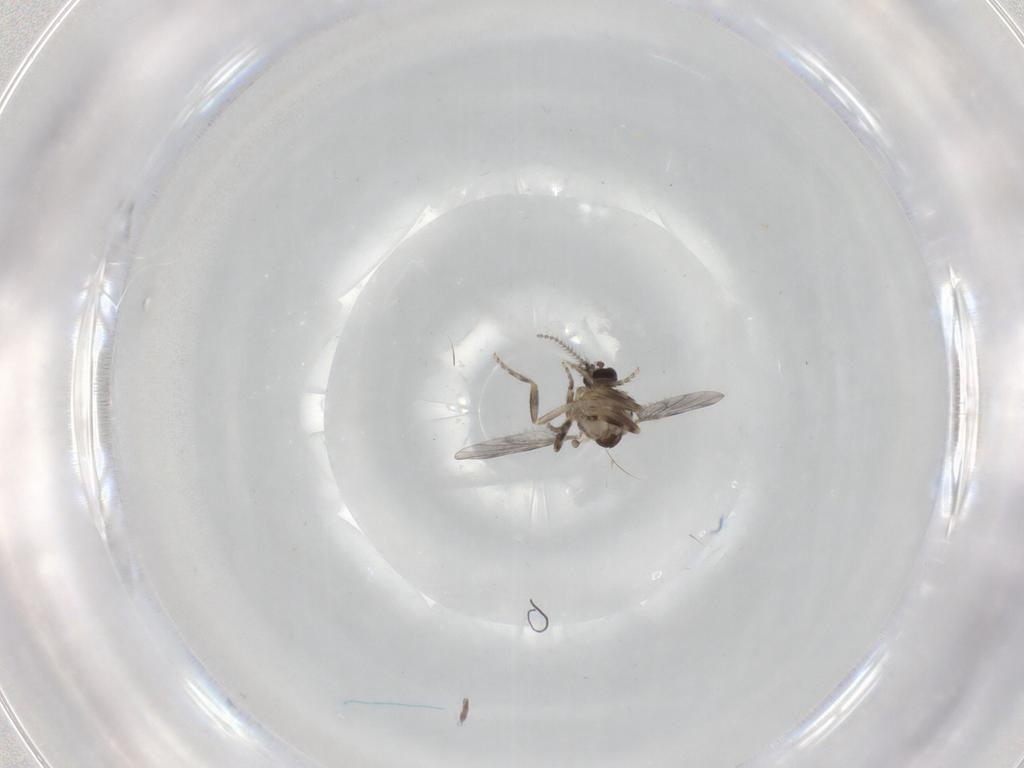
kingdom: Animalia
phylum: Arthropoda
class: Insecta
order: Diptera
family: Ceratopogonidae
